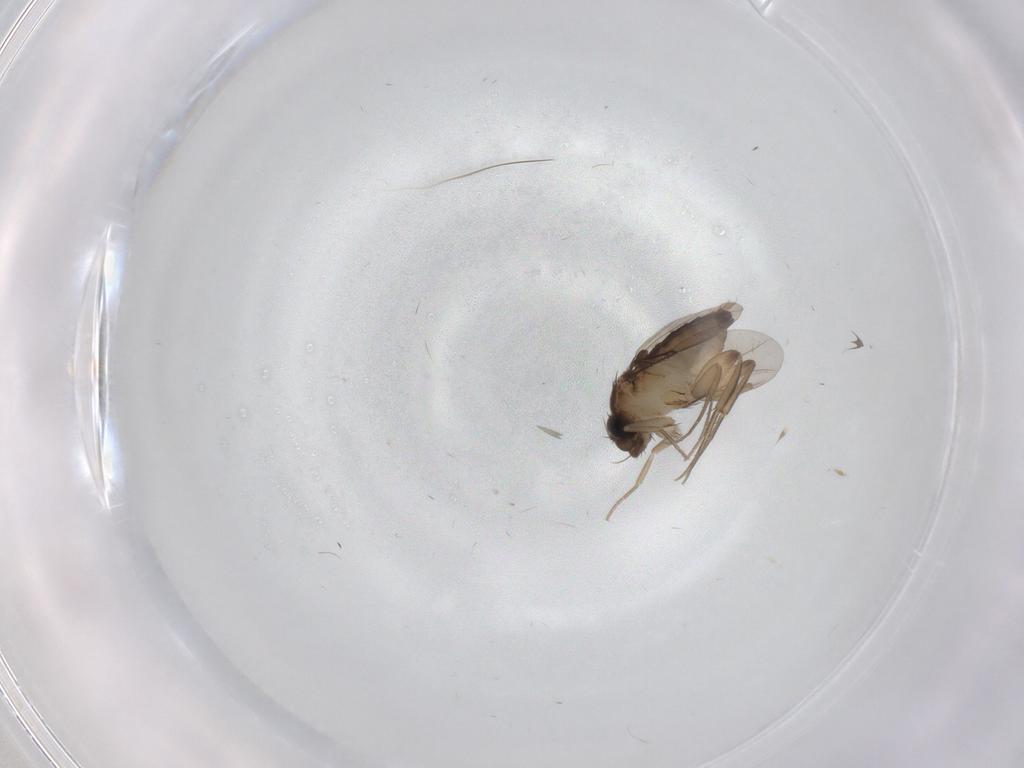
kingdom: Animalia
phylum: Arthropoda
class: Insecta
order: Diptera
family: Phoridae
